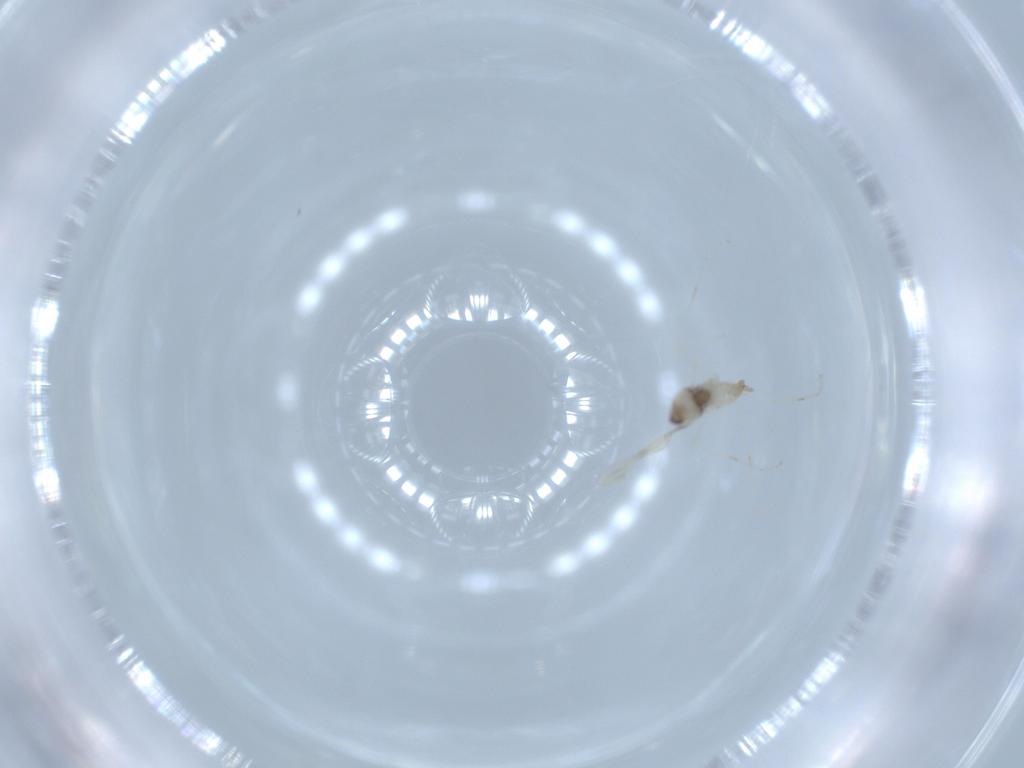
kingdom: Animalia
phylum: Arthropoda
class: Insecta
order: Diptera
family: Cecidomyiidae
